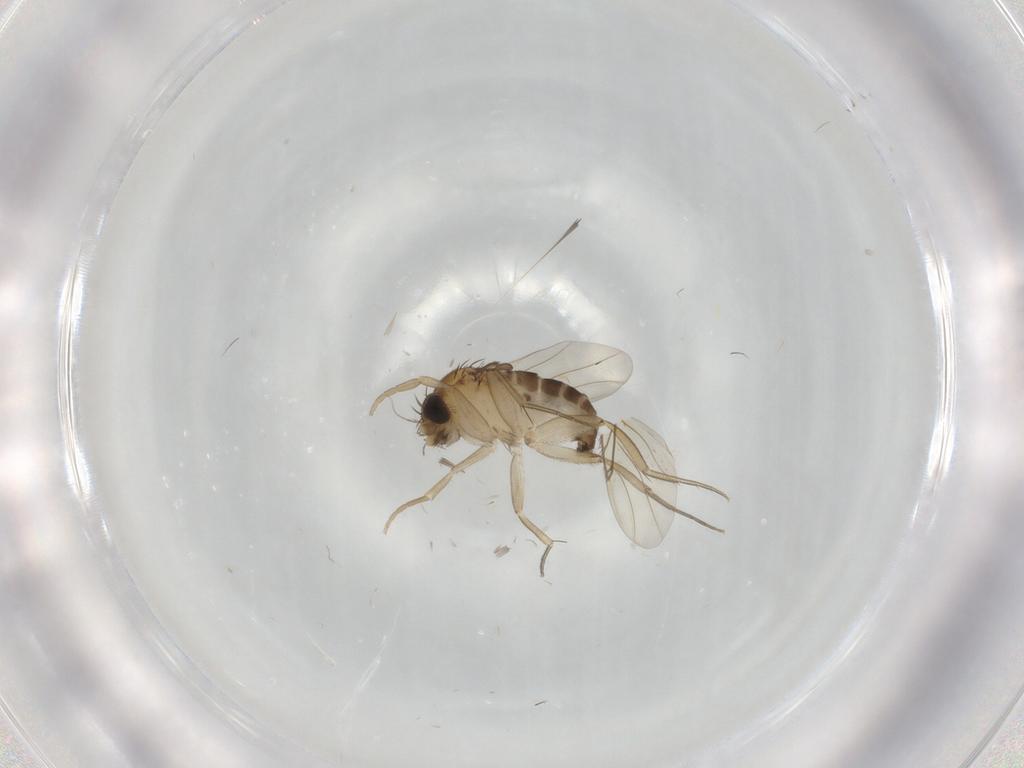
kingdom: Animalia
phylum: Arthropoda
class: Insecta
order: Diptera
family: Phoridae
